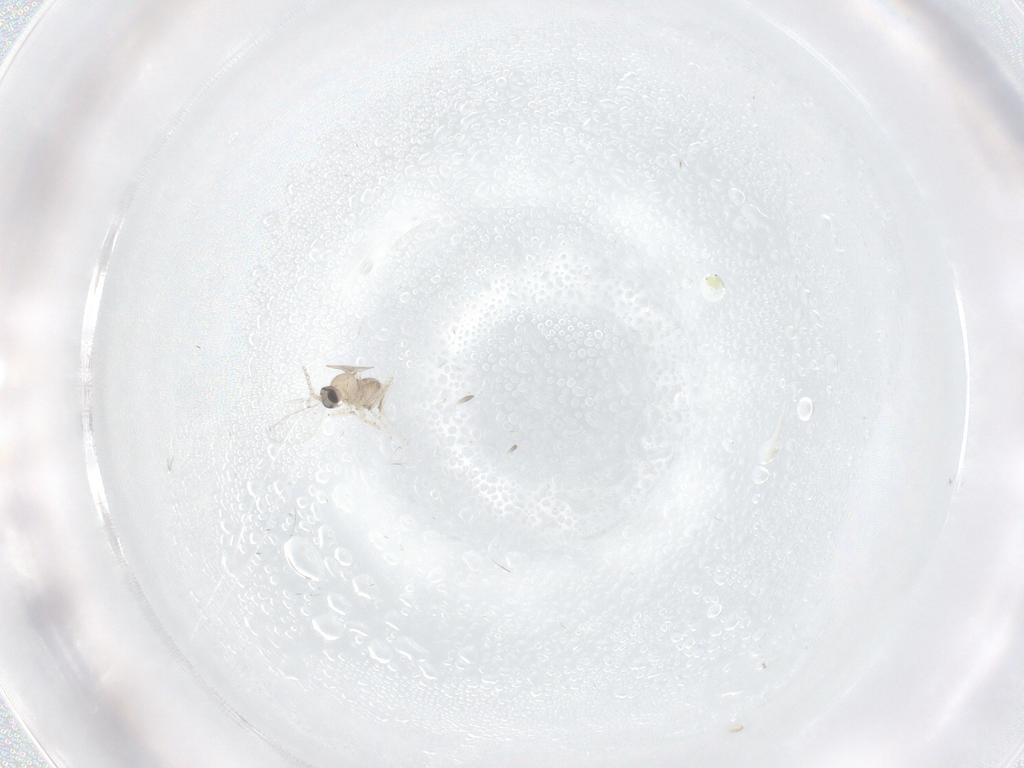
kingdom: Animalia
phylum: Arthropoda
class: Insecta
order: Diptera
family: Cecidomyiidae
